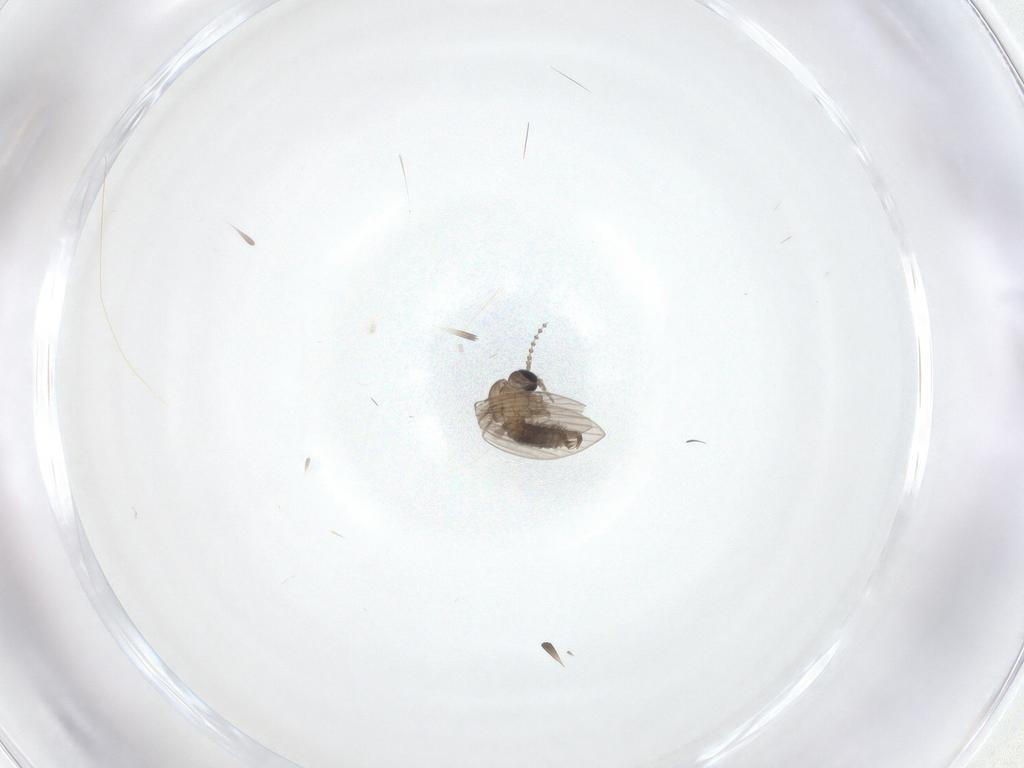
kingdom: Animalia
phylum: Arthropoda
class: Insecta
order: Diptera
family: Psychodidae
